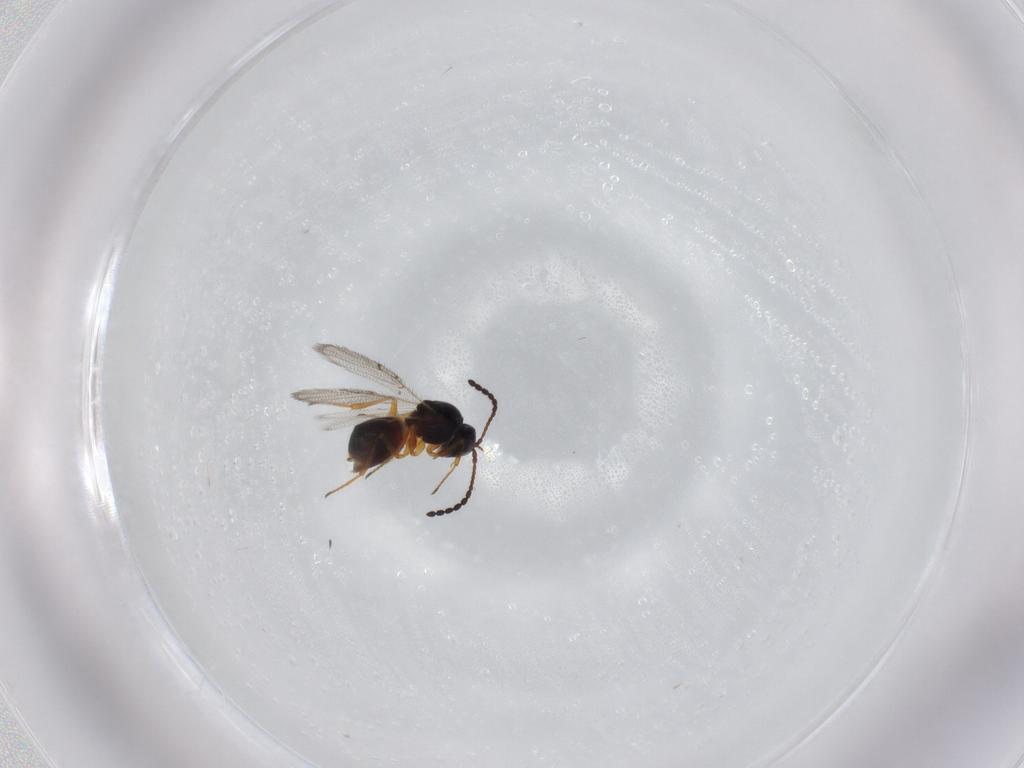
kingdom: Animalia
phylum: Arthropoda
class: Insecta
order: Hymenoptera
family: Figitidae
